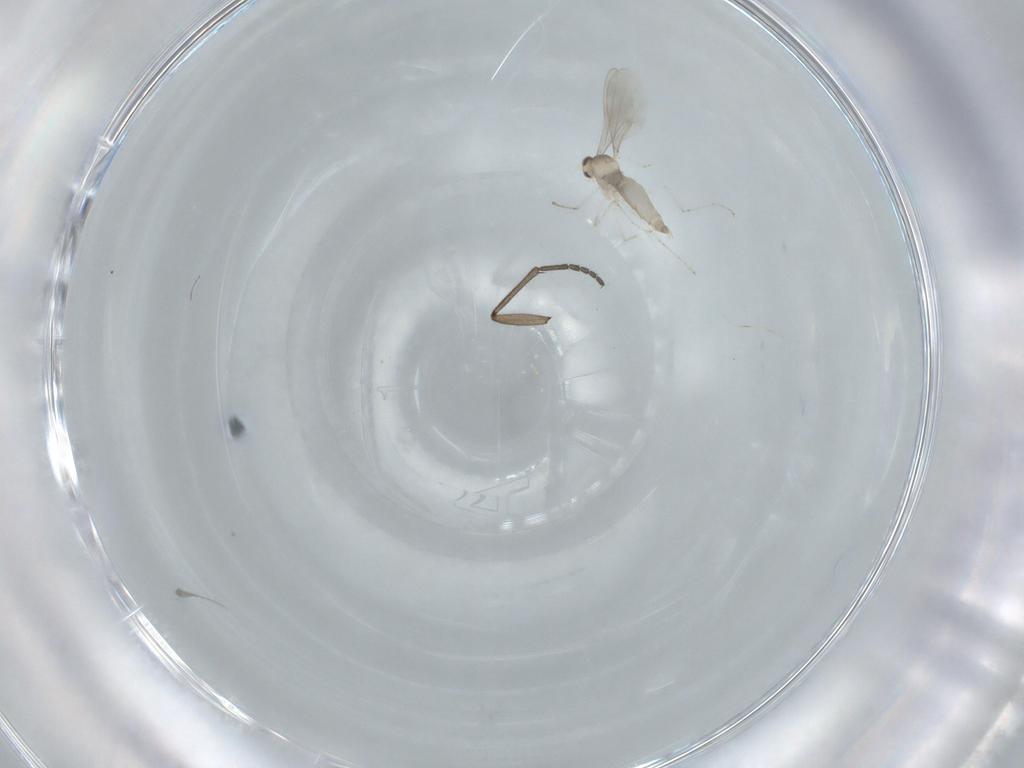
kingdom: Animalia
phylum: Arthropoda
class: Insecta
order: Diptera
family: Cecidomyiidae
